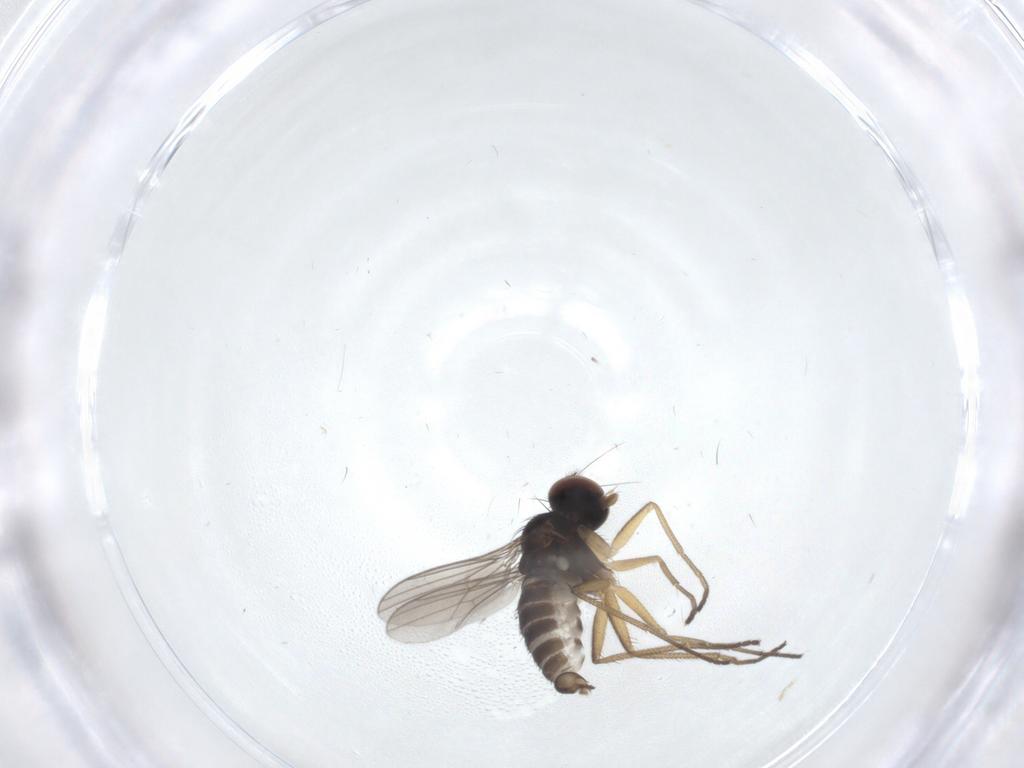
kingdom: Animalia
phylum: Arthropoda
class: Insecta
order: Diptera
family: Dolichopodidae
